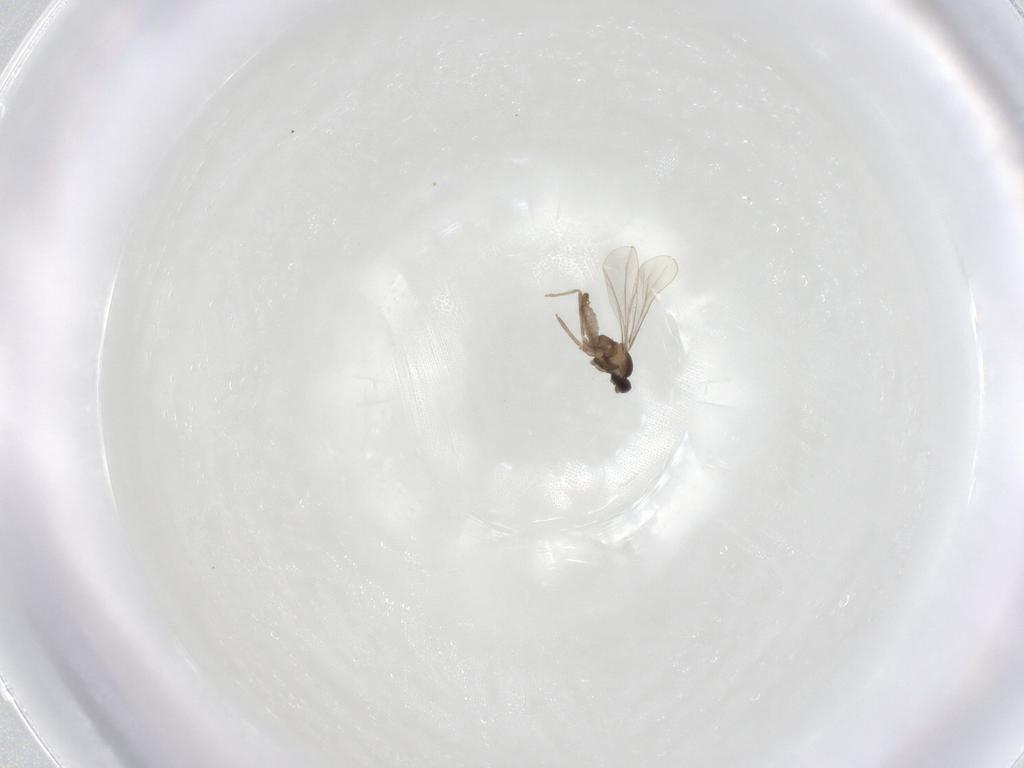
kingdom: Animalia
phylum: Arthropoda
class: Insecta
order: Diptera
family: Cecidomyiidae
